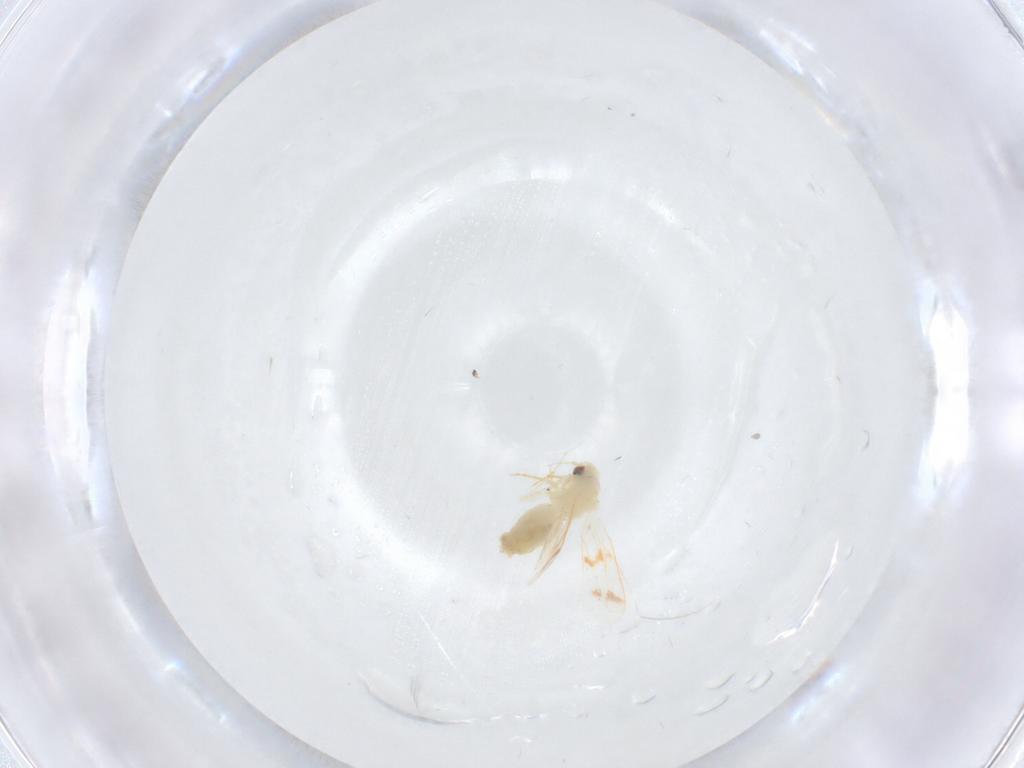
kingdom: Animalia
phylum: Arthropoda
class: Insecta
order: Hemiptera
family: Aleyrodidae
